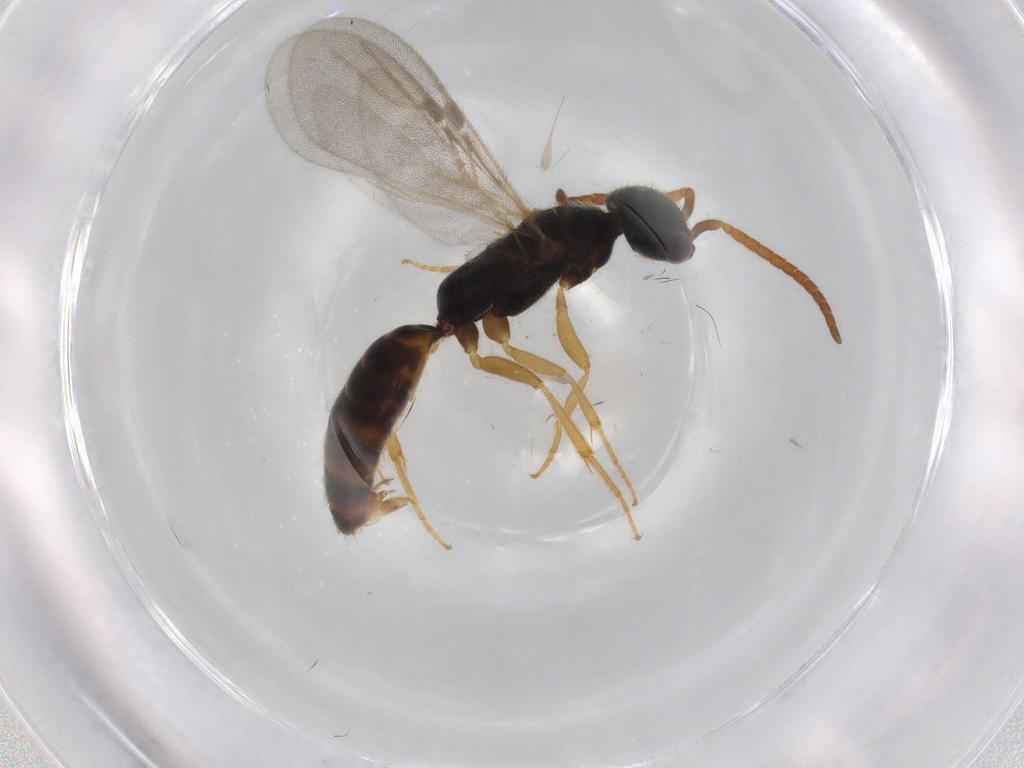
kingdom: Animalia
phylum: Arthropoda
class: Insecta
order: Hymenoptera
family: Bethylidae
